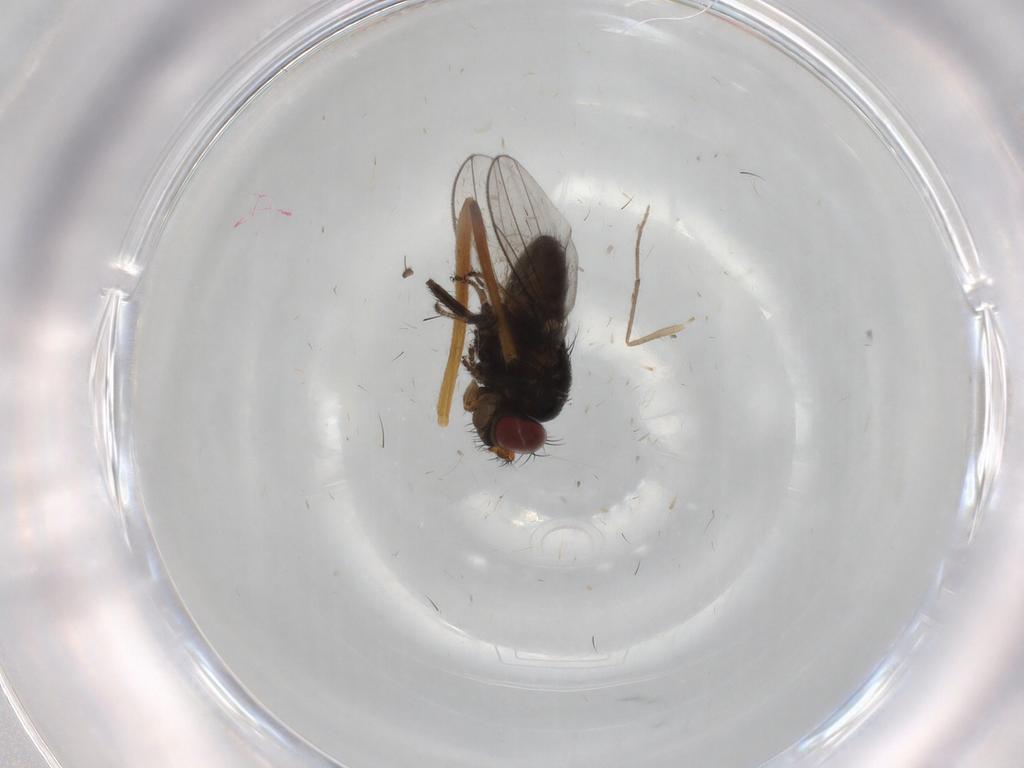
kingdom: Animalia
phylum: Arthropoda
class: Insecta
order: Diptera
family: Ephydridae
